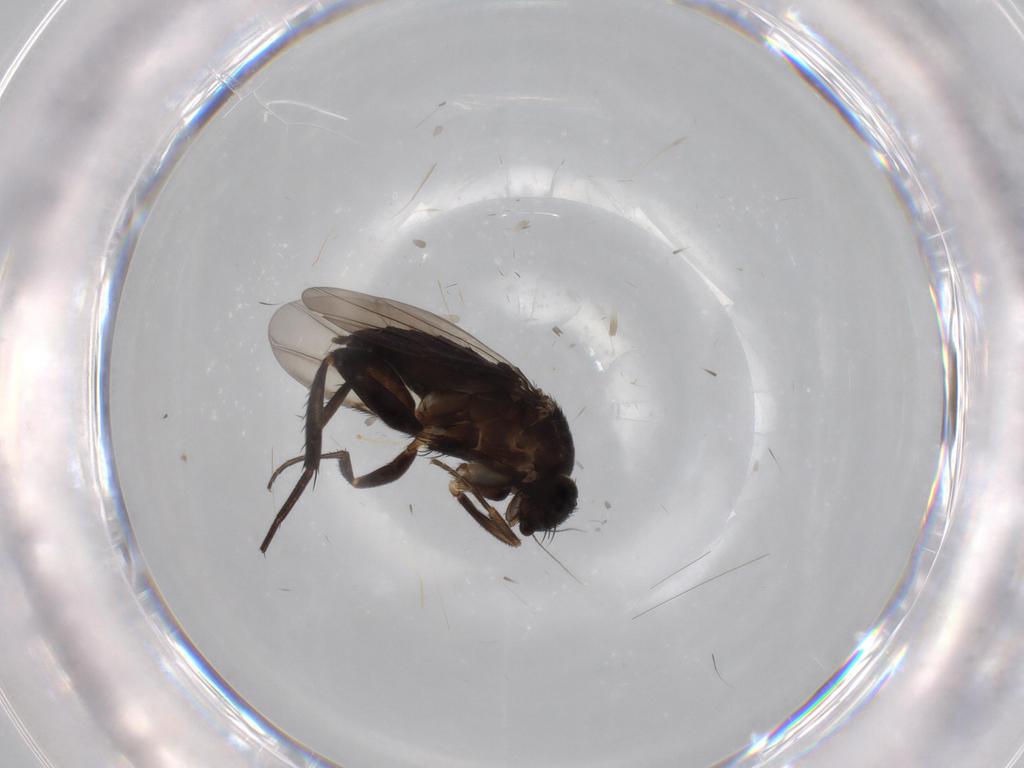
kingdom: Animalia
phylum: Arthropoda
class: Insecta
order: Diptera
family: Phoridae
